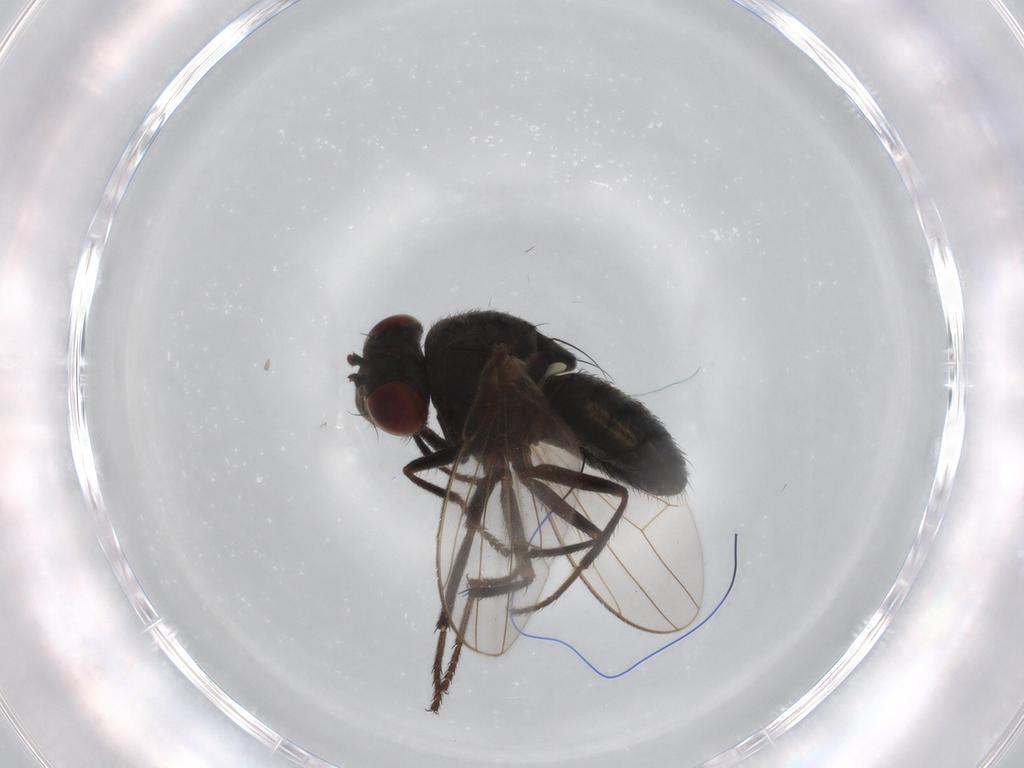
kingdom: Animalia
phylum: Arthropoda
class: Insecta
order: Diptera
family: Ephydridae
